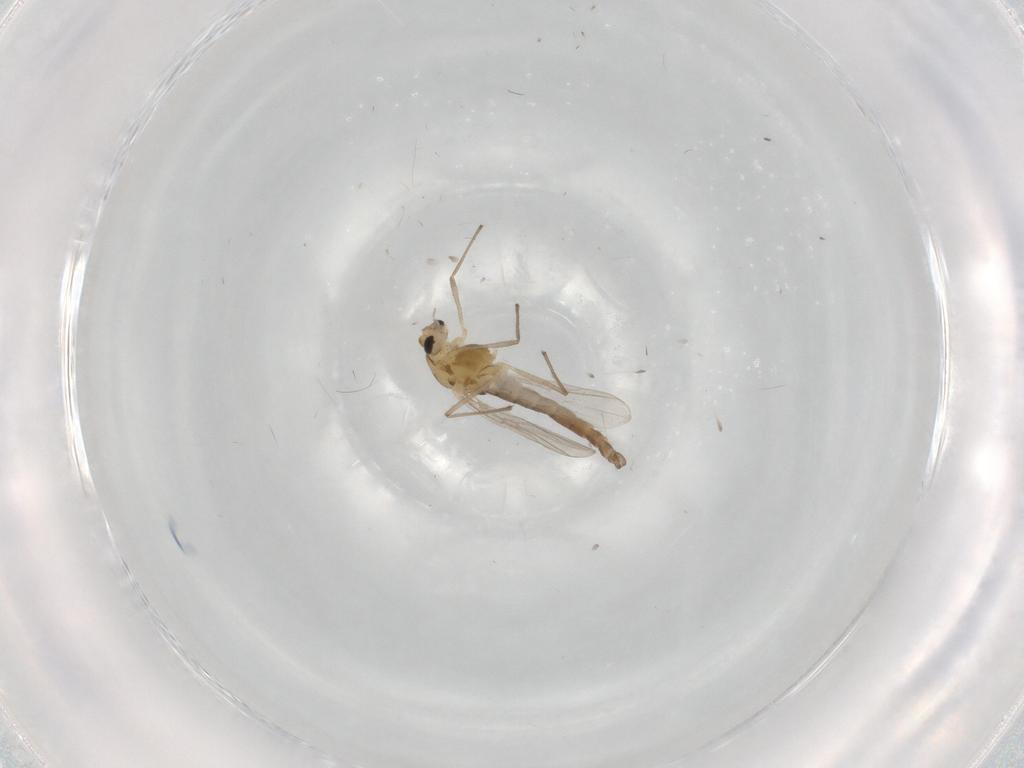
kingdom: Animalia
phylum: Arthropoda
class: Insecta
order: Diptera
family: Chironomidae
